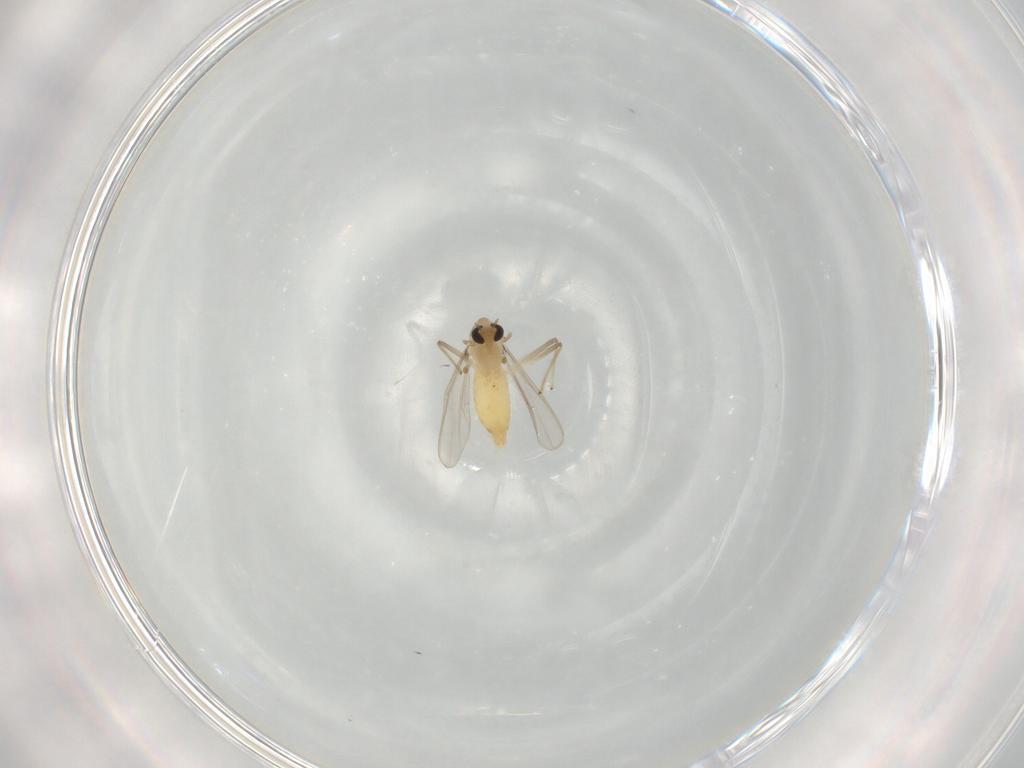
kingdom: Animalia
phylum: Arthropoda
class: Insecta
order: Diptera
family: Chironomidae
